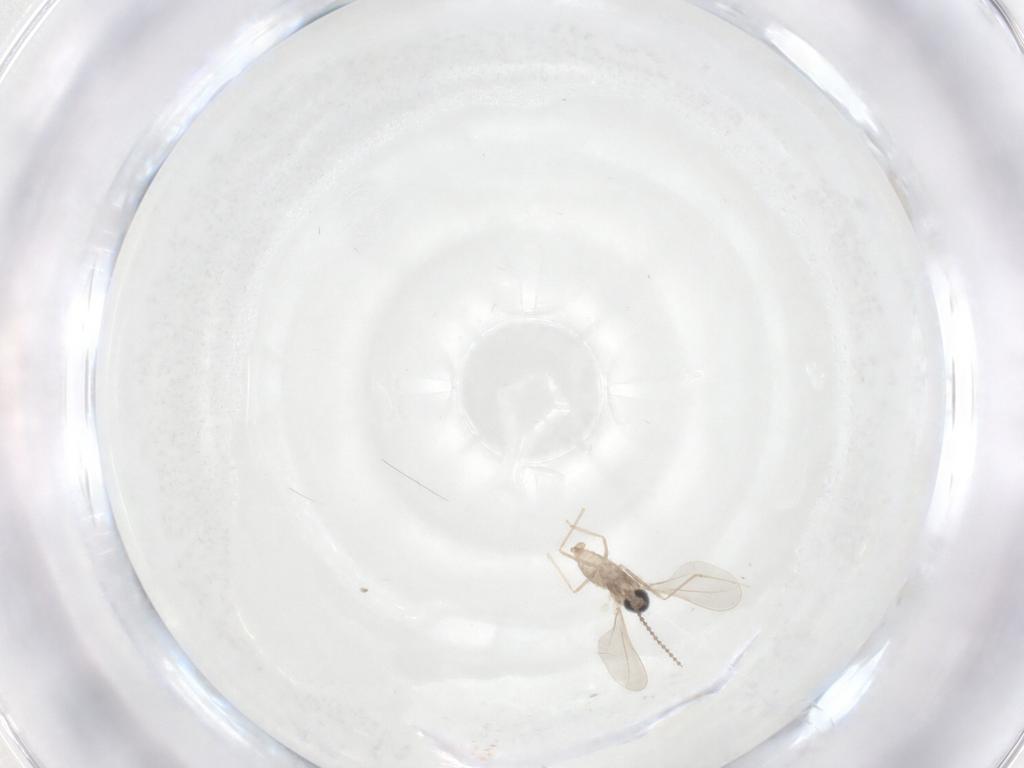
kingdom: Animalia
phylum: Arthropoda
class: Insecta
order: Diptera
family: Cecidomyiidae
